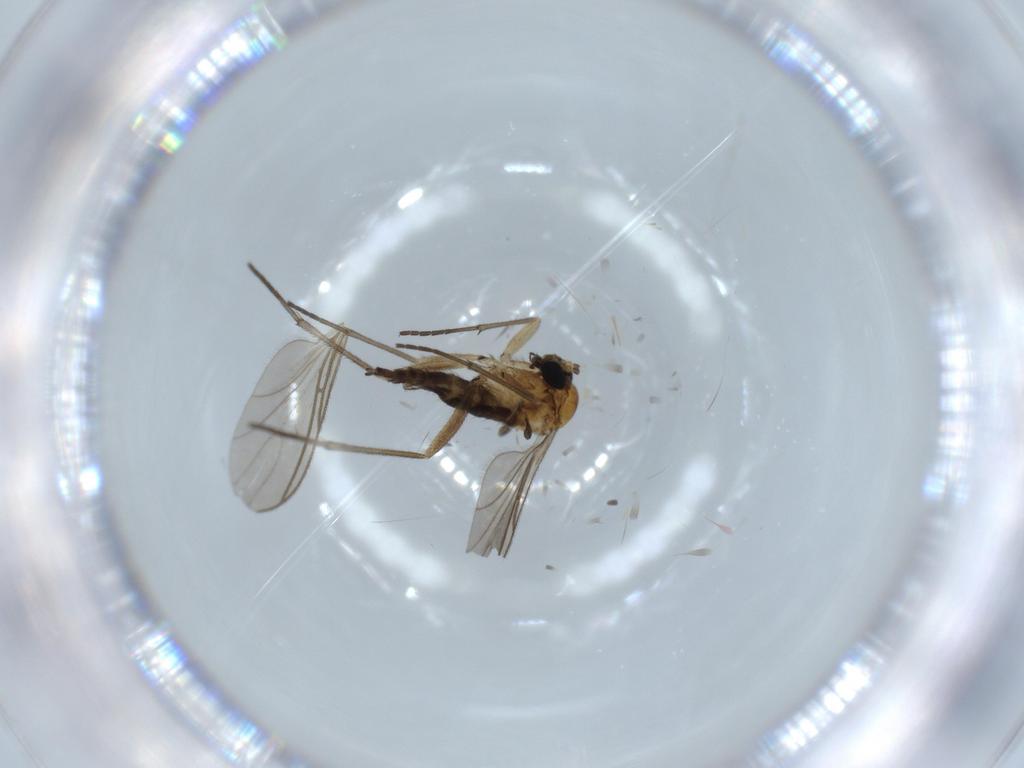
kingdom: Animalia
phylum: Arthropoda
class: Insecta
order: Diptera
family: Sciaridae
